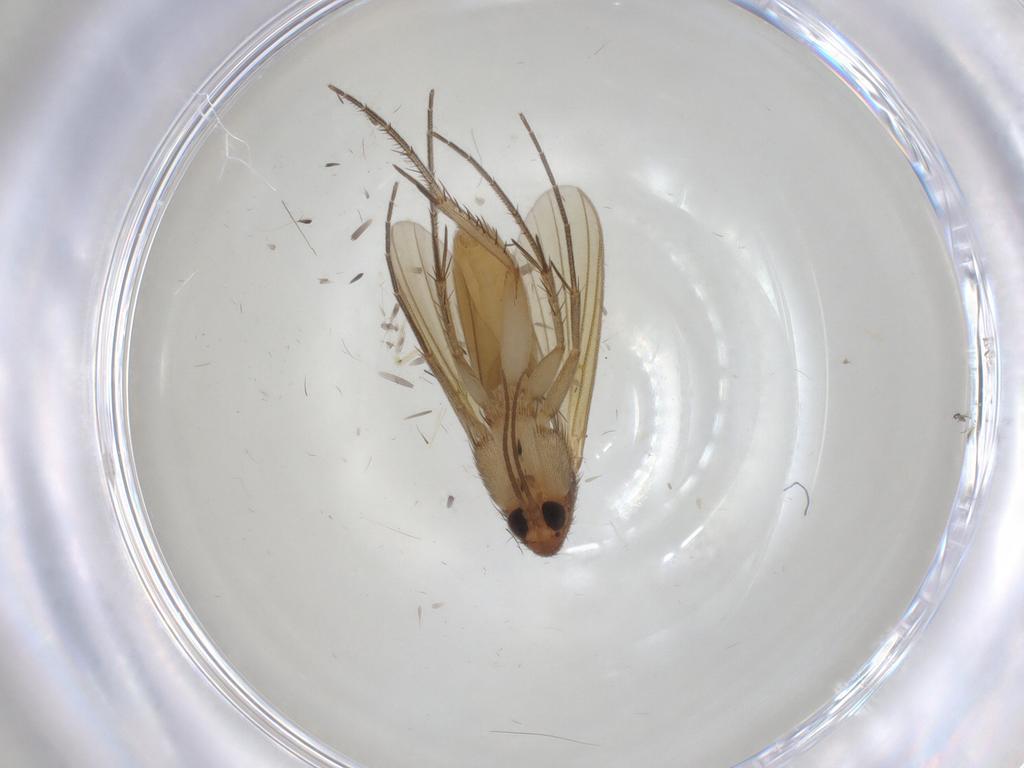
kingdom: Animalia
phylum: Arthropoda
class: Insecta
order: Diptera
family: Mycetophilidae
